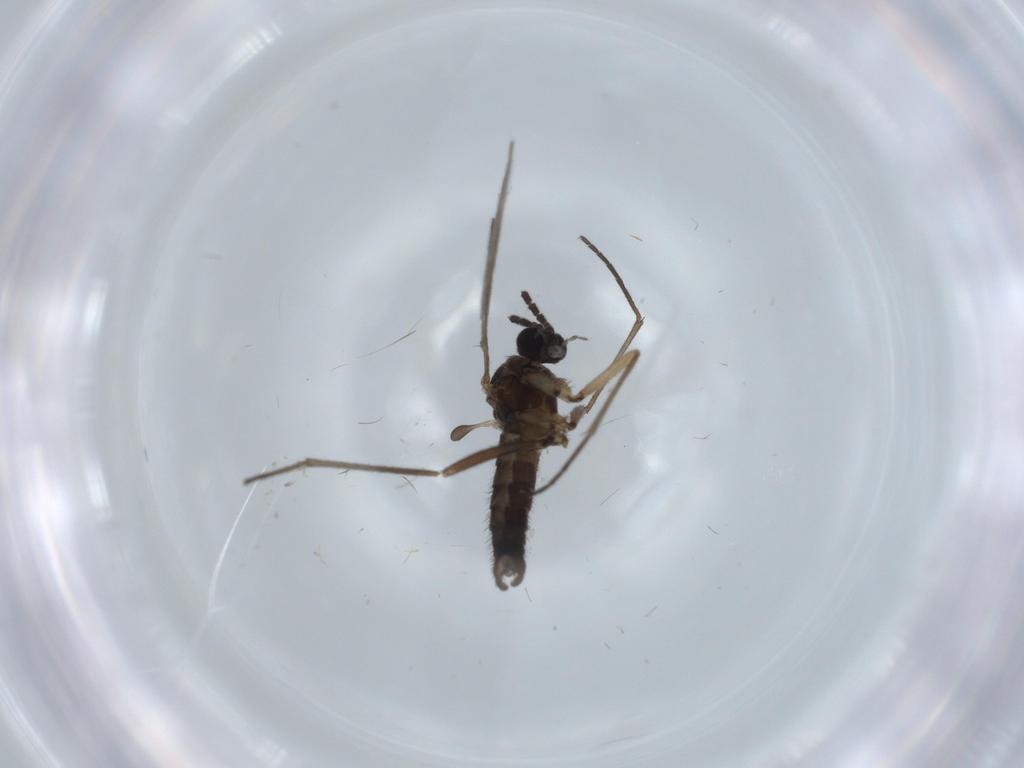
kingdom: Animalia
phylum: Arthropoda
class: Insecta
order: Diptera
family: Sciaridae
